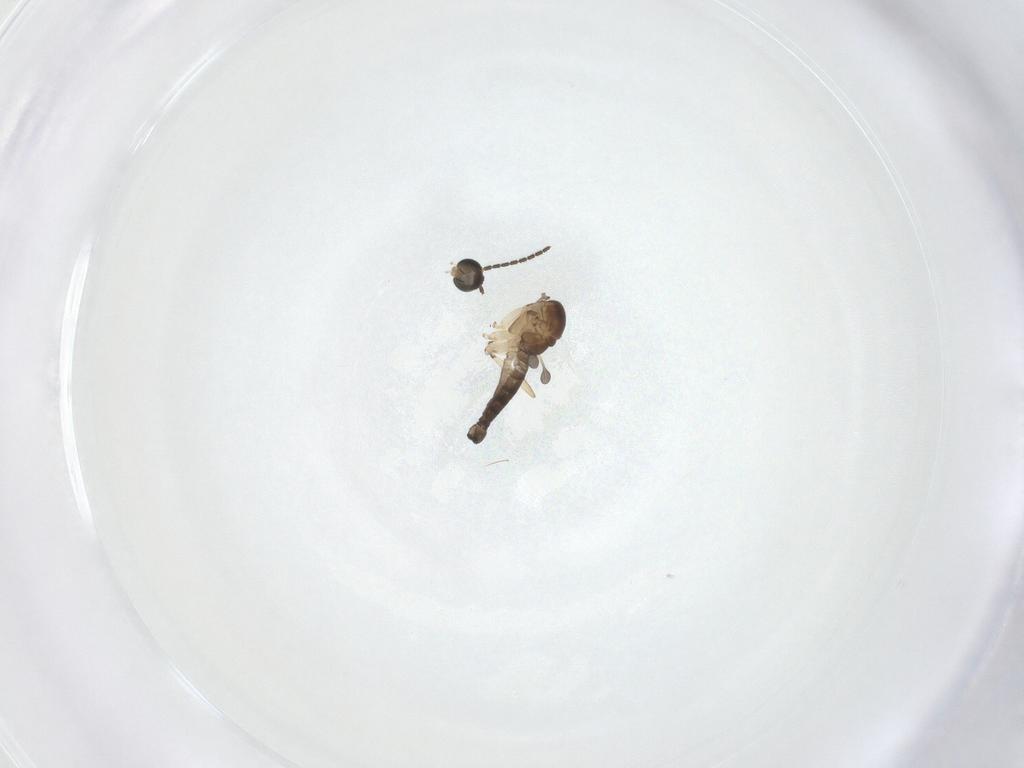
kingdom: Animalia
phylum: Arthropoda
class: Insecta
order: Diptera
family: Sciaridae
